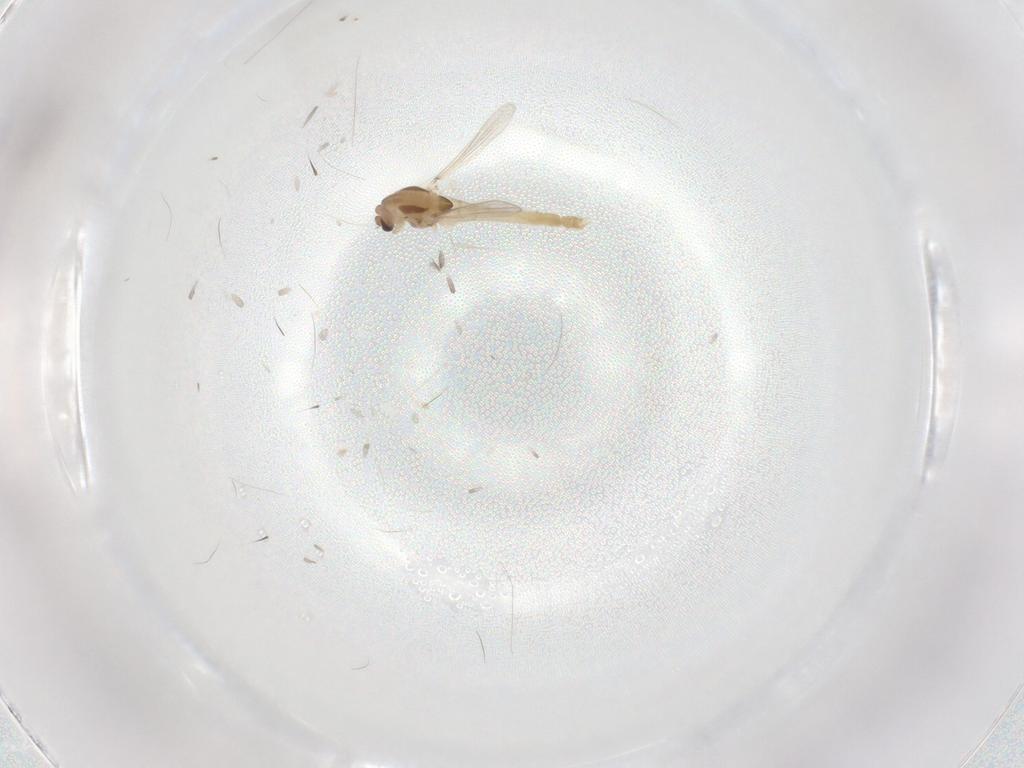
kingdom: Animalia
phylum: Arthropoda
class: Insecta
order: Diptera
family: Chironomidae
